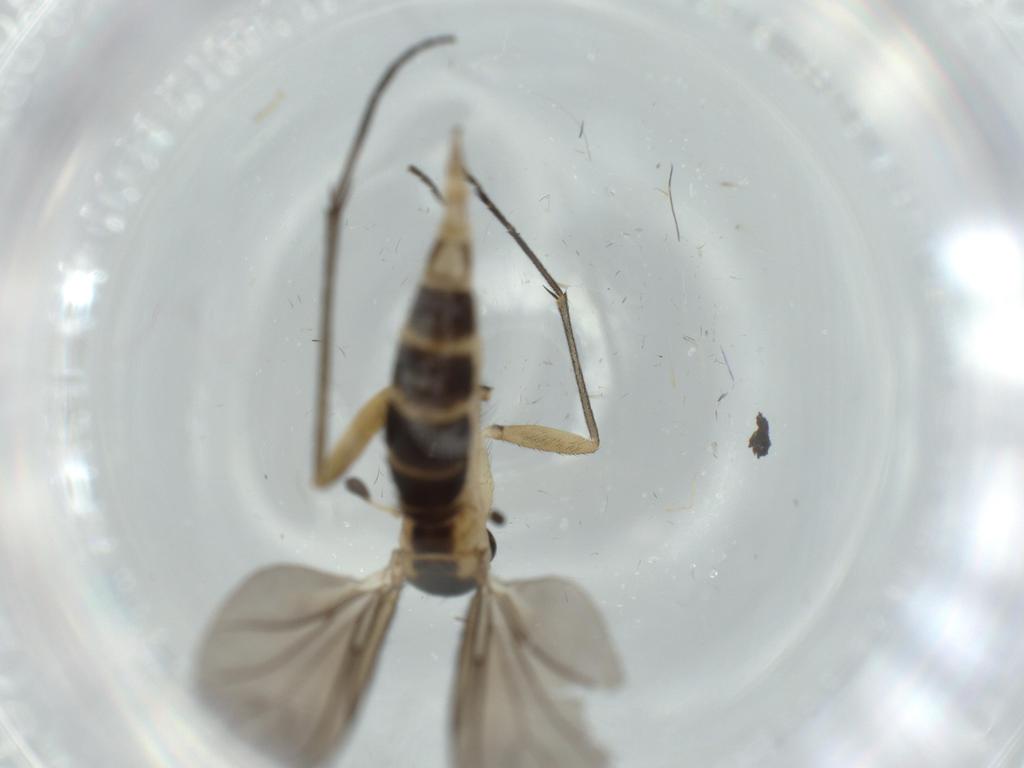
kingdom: Animalia
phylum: Arthropoda
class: Insecta
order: Diptera
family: Sciaridae
